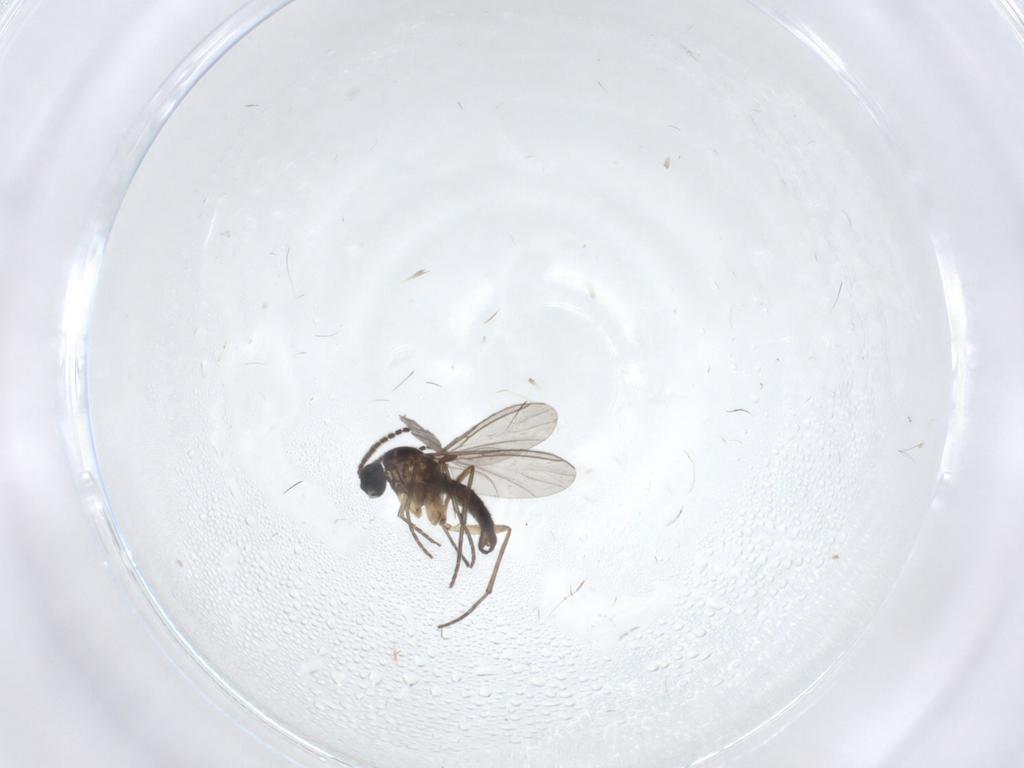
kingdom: Animalia
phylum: Arthropoda
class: Insecta
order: Diptera
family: Sciaridae
